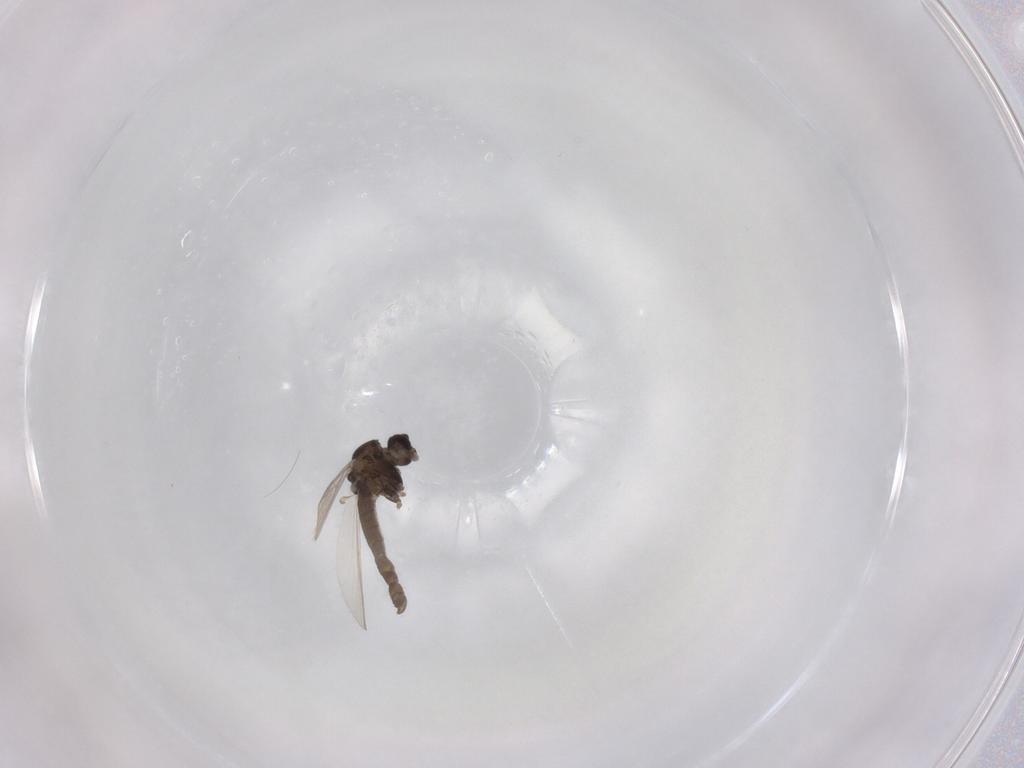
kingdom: Animalia
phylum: Arthropoda
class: Insecta
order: Diptera
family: Chironomidae
